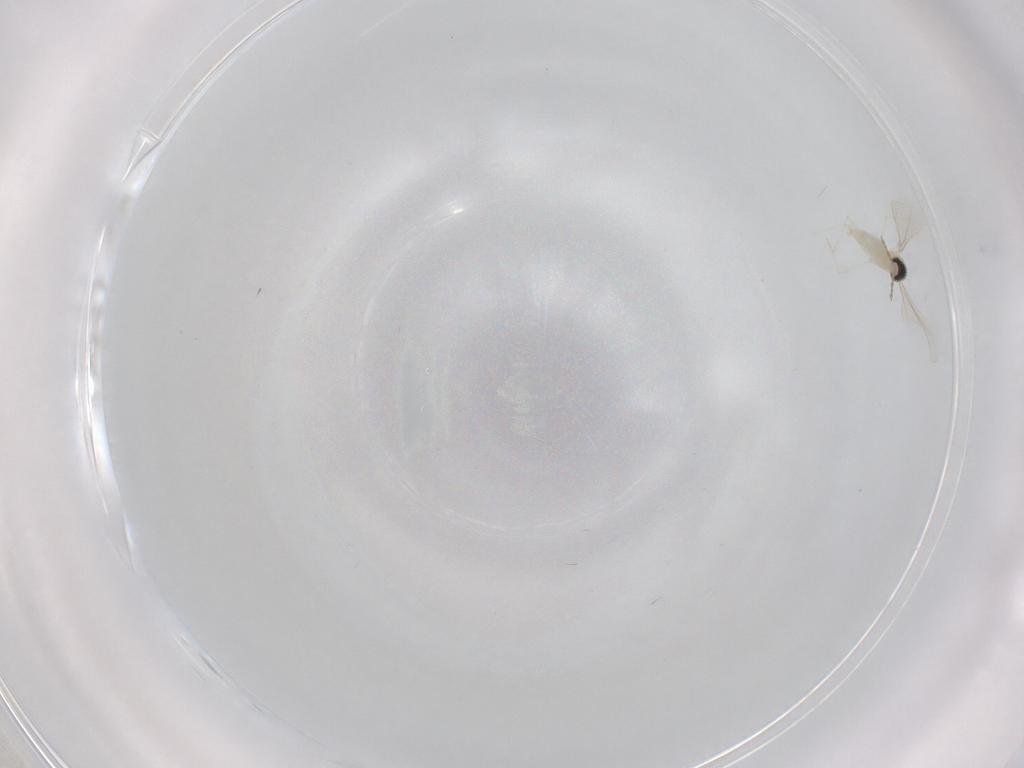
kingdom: Animalia
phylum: Arthropoda
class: Insecta
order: Diptera
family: Cecidomyiidae
